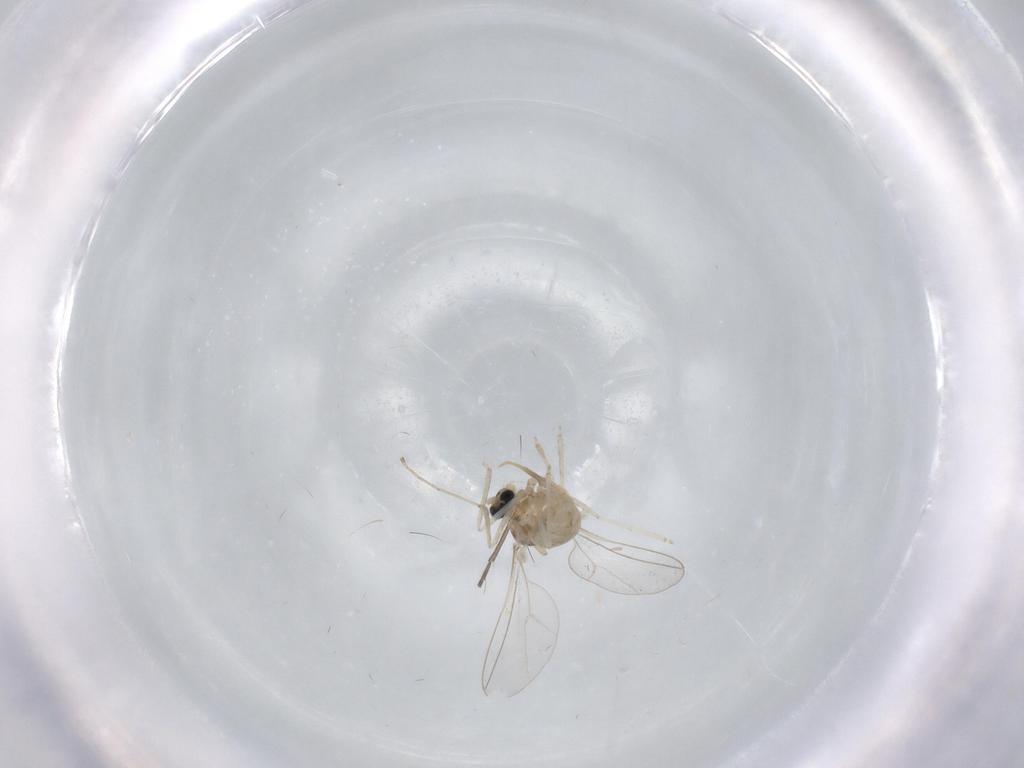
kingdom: Animalia
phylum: Arthropoda
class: Insecta
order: Diptera
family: Cecidomyiidae
